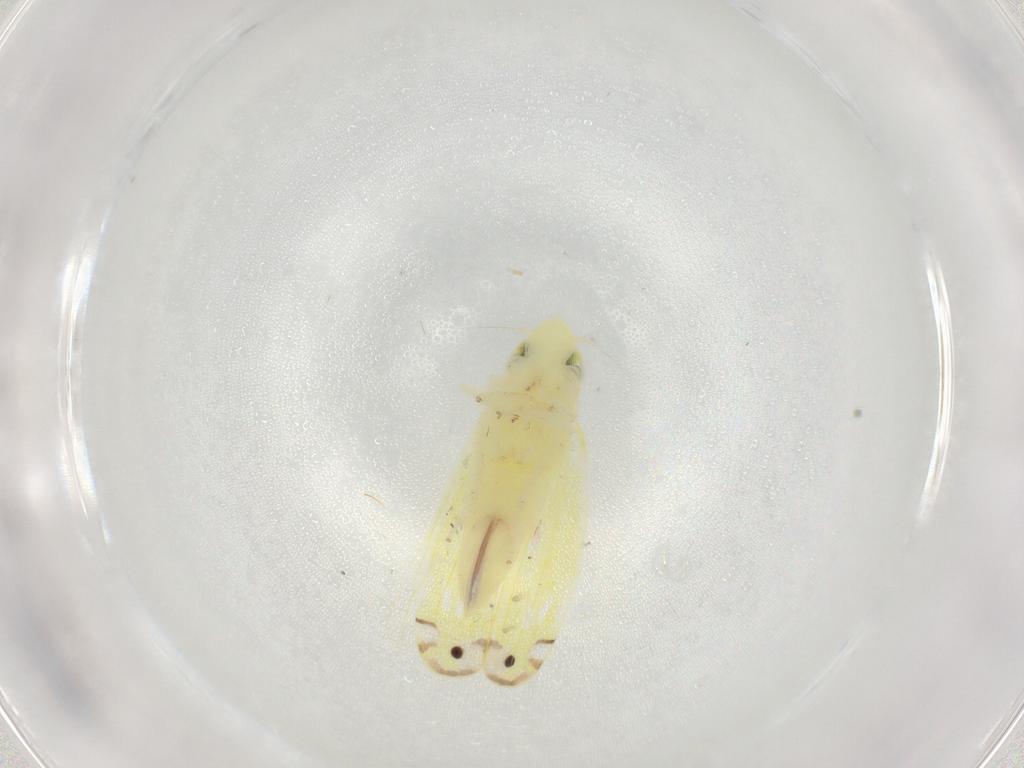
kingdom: Animalia
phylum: Arthropoda
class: Insecta
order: Hemiptera
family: Cicadellidae
